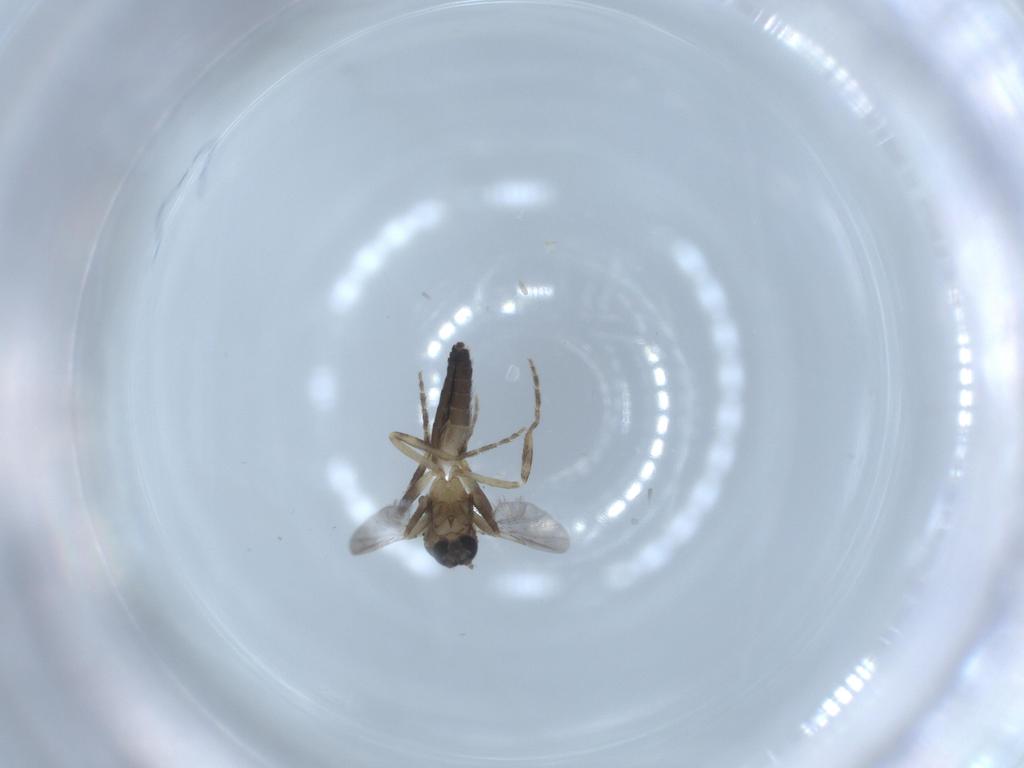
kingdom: Animalia
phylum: Arthropoda
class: Insecta
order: Diptera
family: Ceratopogonidae
